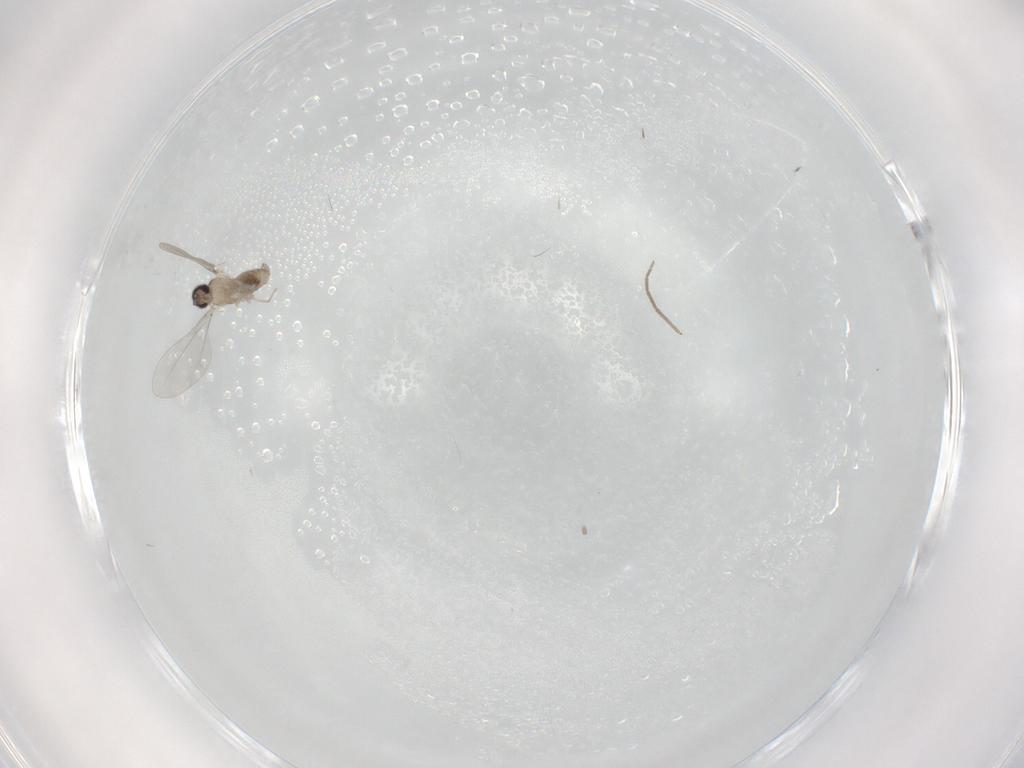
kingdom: Animalia
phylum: Arthropoda
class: Insecta
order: Diptera
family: Chironomidae
